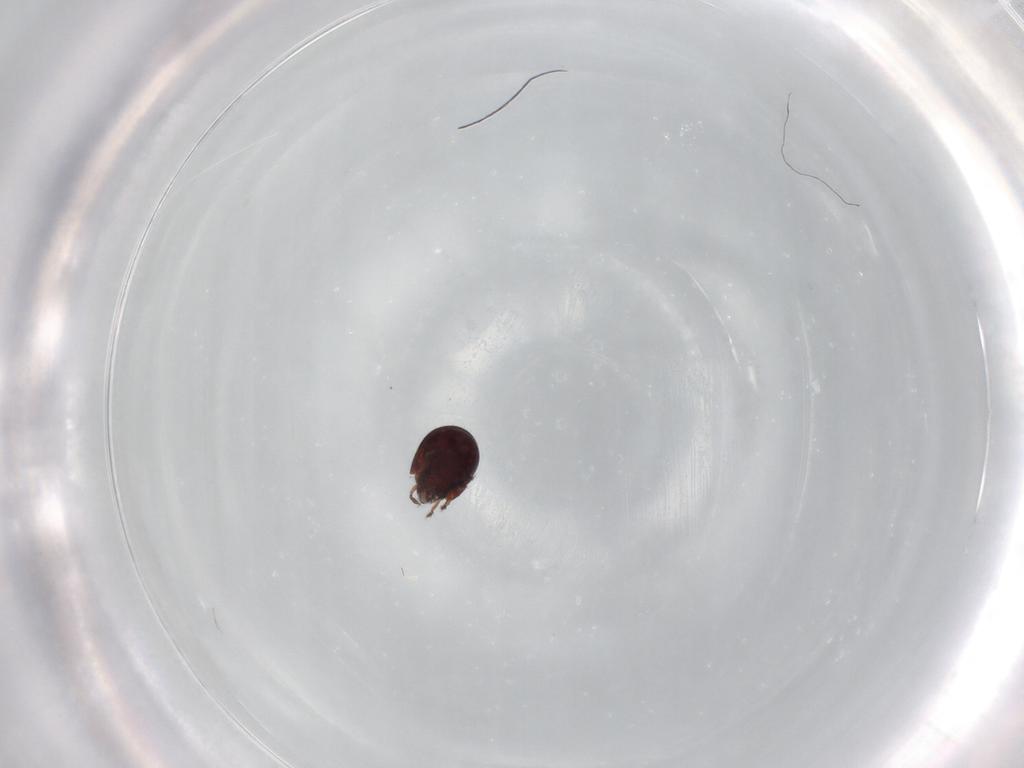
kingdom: Animalia
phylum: Arthropoda
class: Arachnida
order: Sarcoptiformes
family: Humerobatidae
